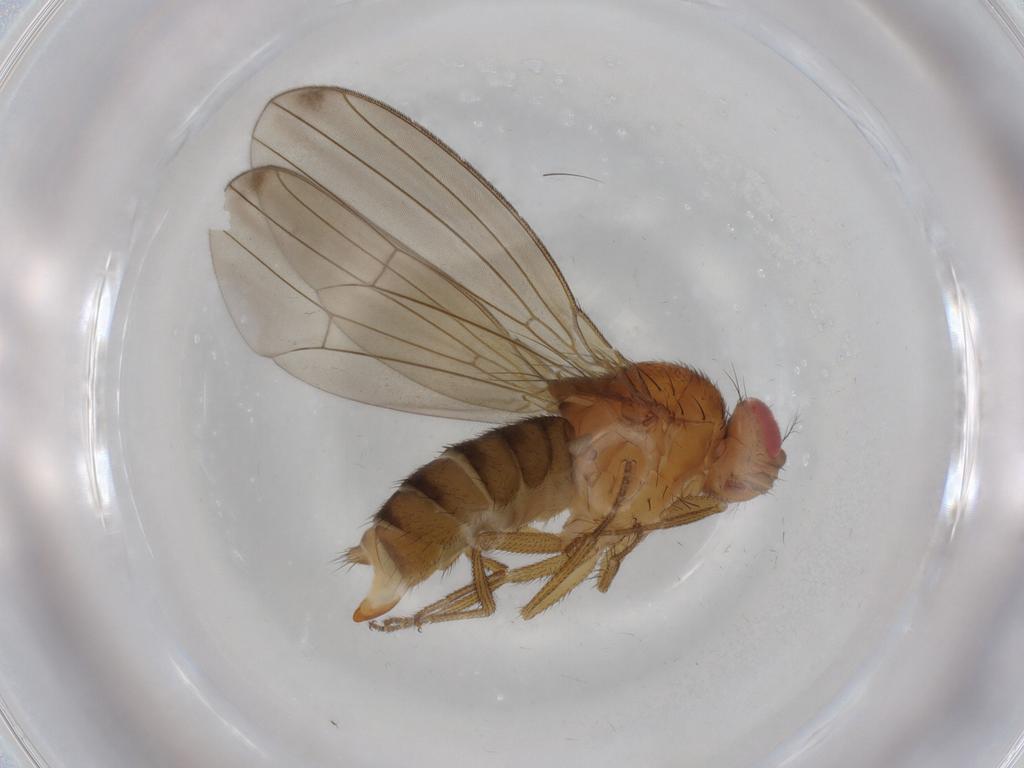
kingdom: Animalia
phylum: Arthropoda
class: Insecta
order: Diptera
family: Drosophilidae
